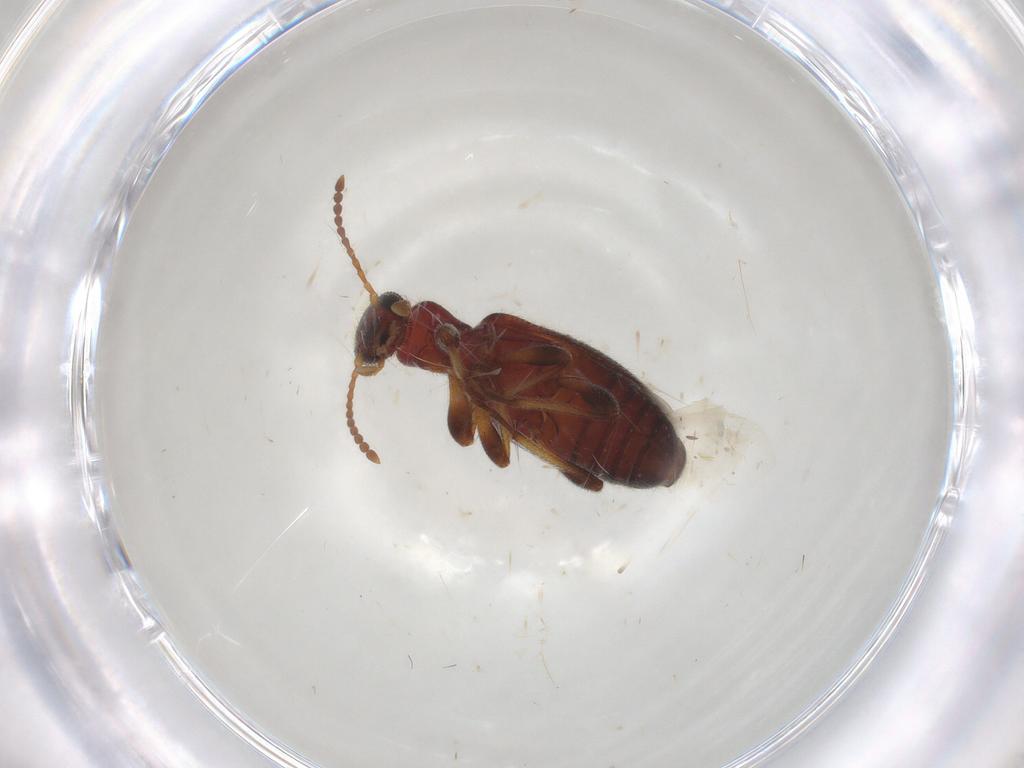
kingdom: Animalia
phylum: Arthropoda
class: Insecta
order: Coleoptera
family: Anthicidae
